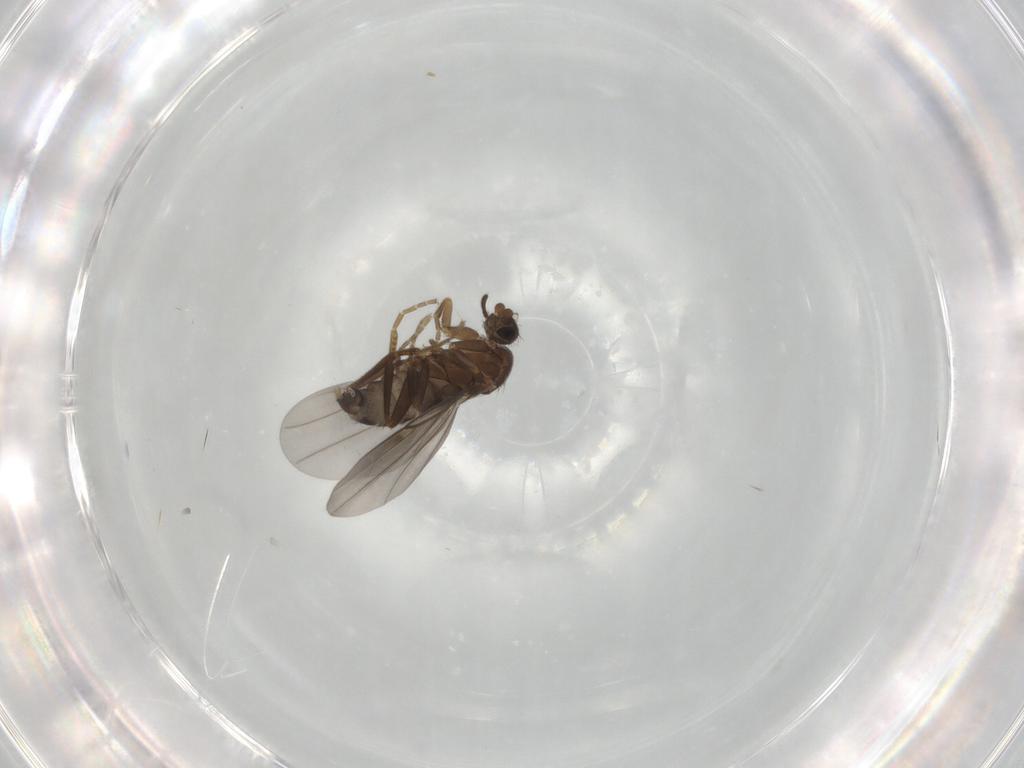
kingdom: Animalia
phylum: Arthropoda
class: Insecta
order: Diptera
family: Phoridae
